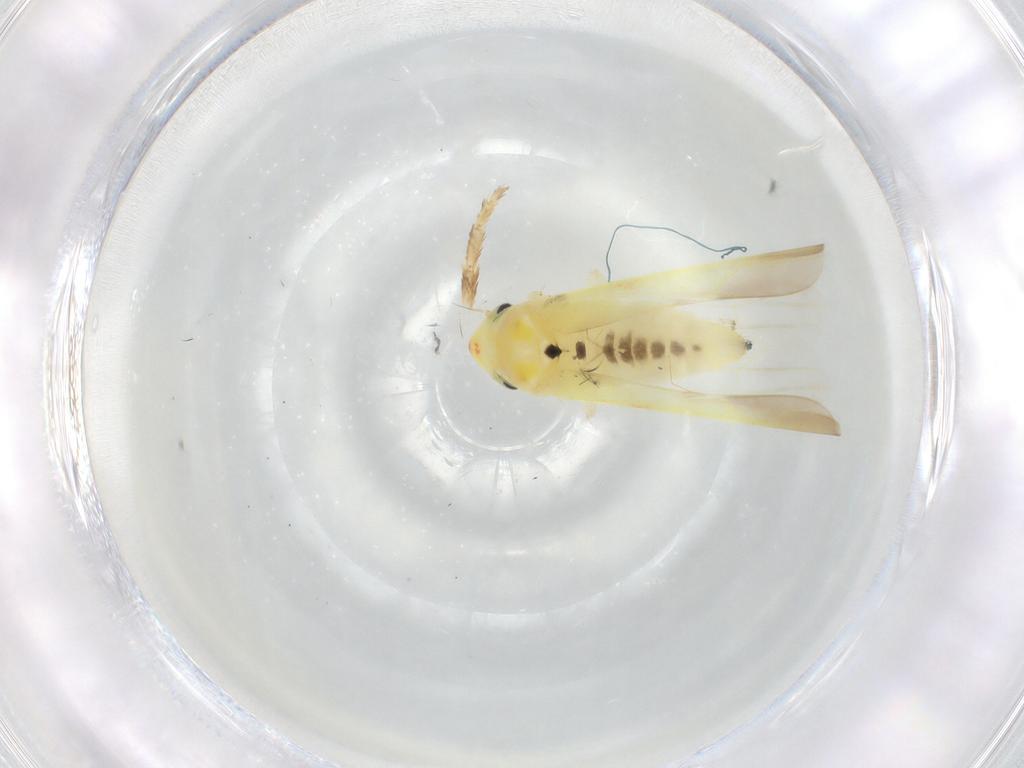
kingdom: Animalia
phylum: Arthropoda
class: Insecta
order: Hemiptera
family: Cicadellidae
